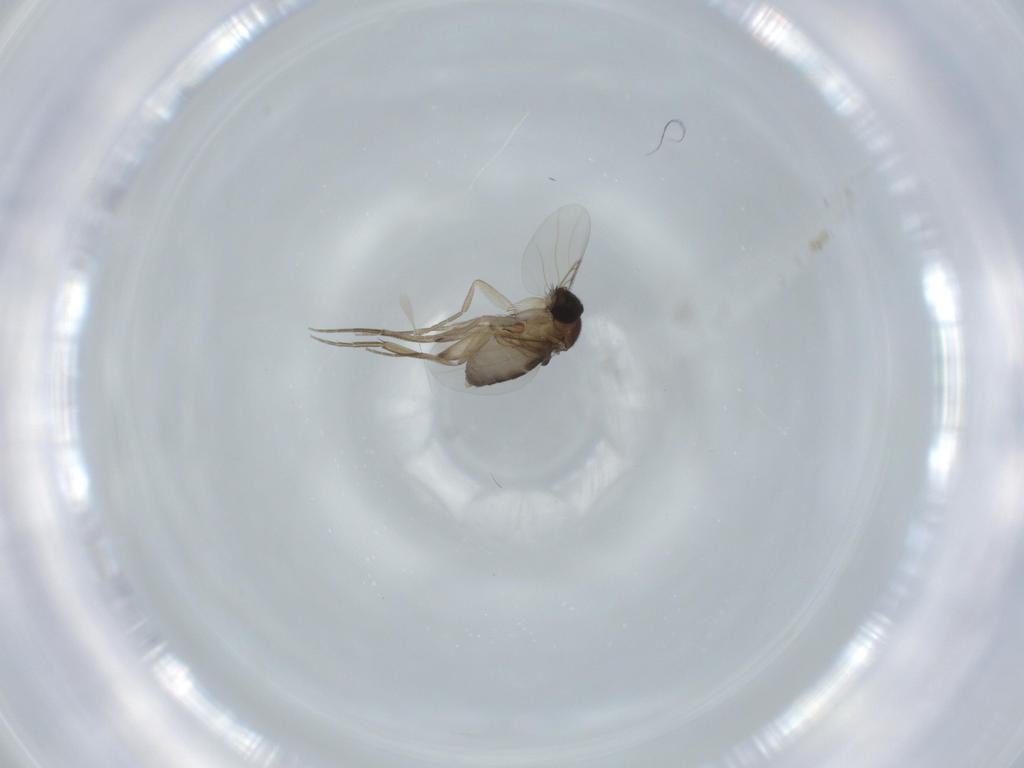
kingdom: Animalia
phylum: Arthropoda
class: Insecta
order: Diptera
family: Phoridae
